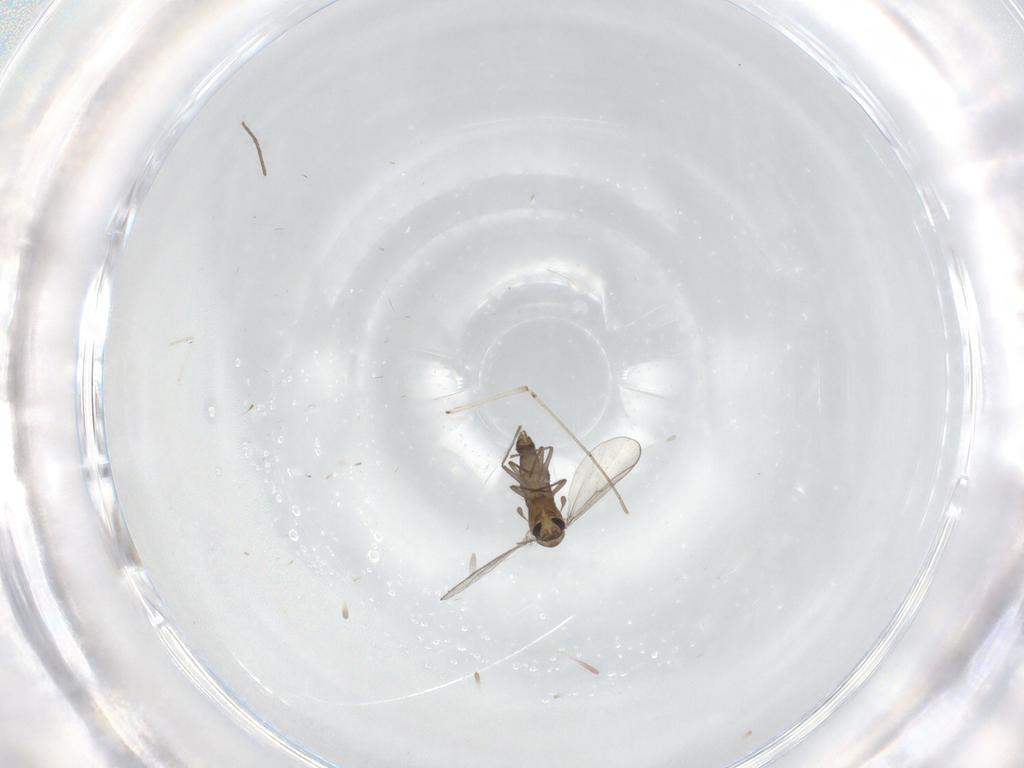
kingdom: Animalia
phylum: Arthropoda
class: Insecta
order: Diptera
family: Chironomidae
